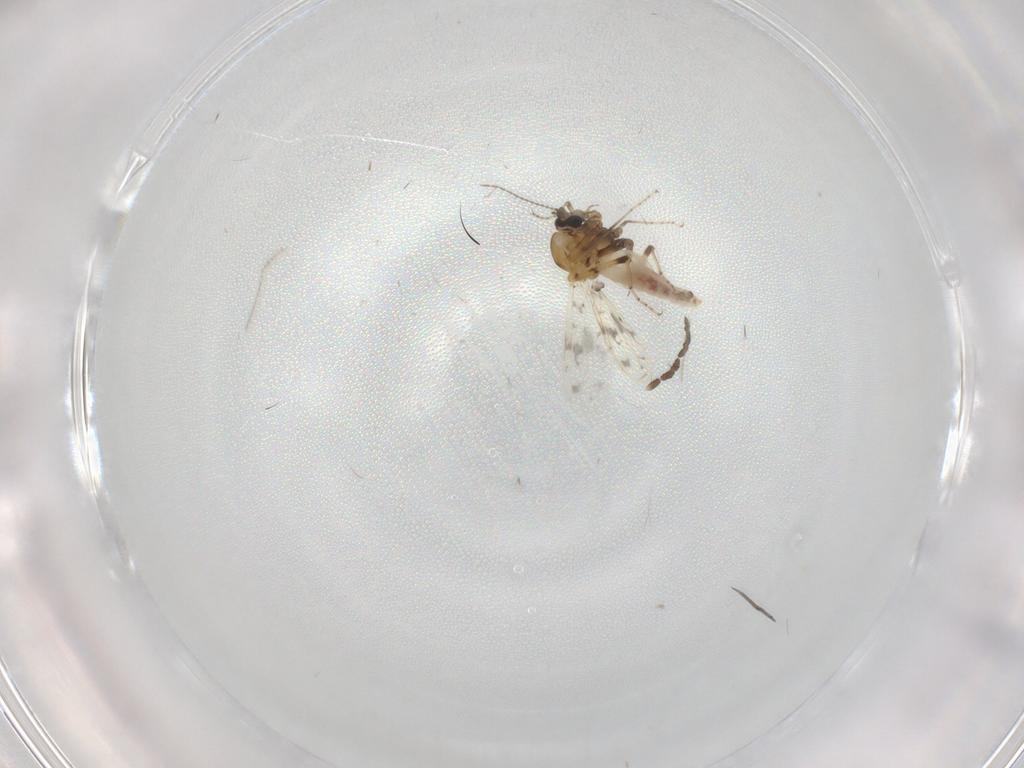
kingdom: Animalia
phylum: Arthropoda
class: Insecta
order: Diptera
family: Limoniidae
